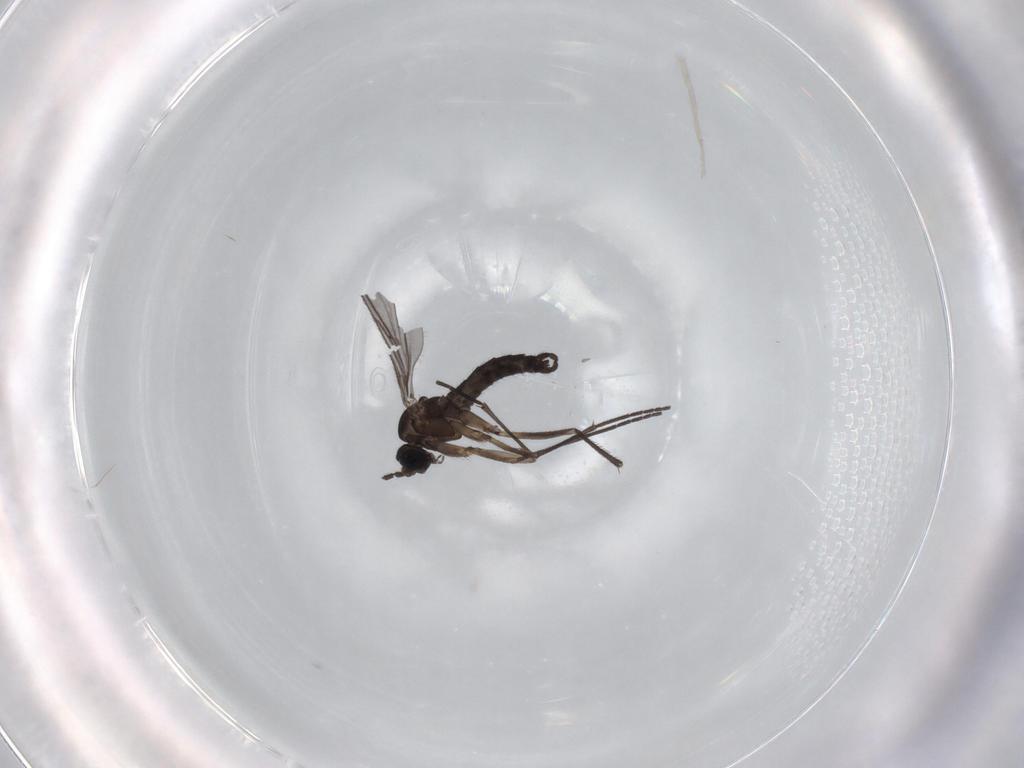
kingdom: Animalia
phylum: Arthropoda
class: Insecta
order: Diptera
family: Sciaridae
